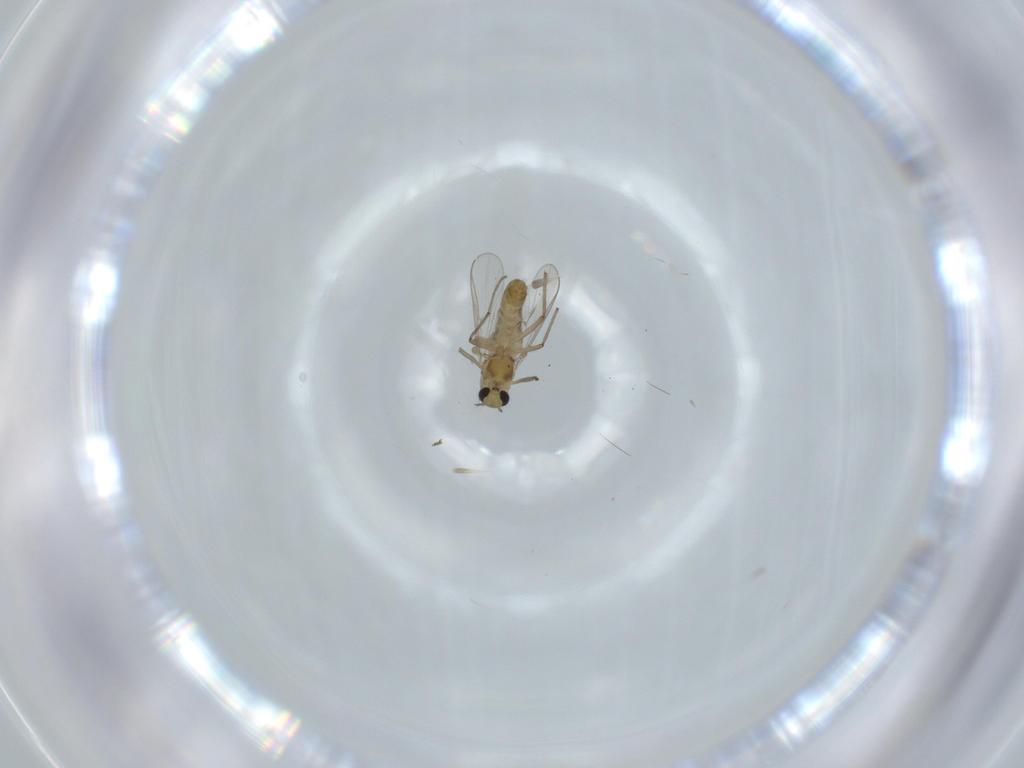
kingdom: Animalia
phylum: Arthropoda
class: Insecta
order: Diptera
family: Chironomidae
